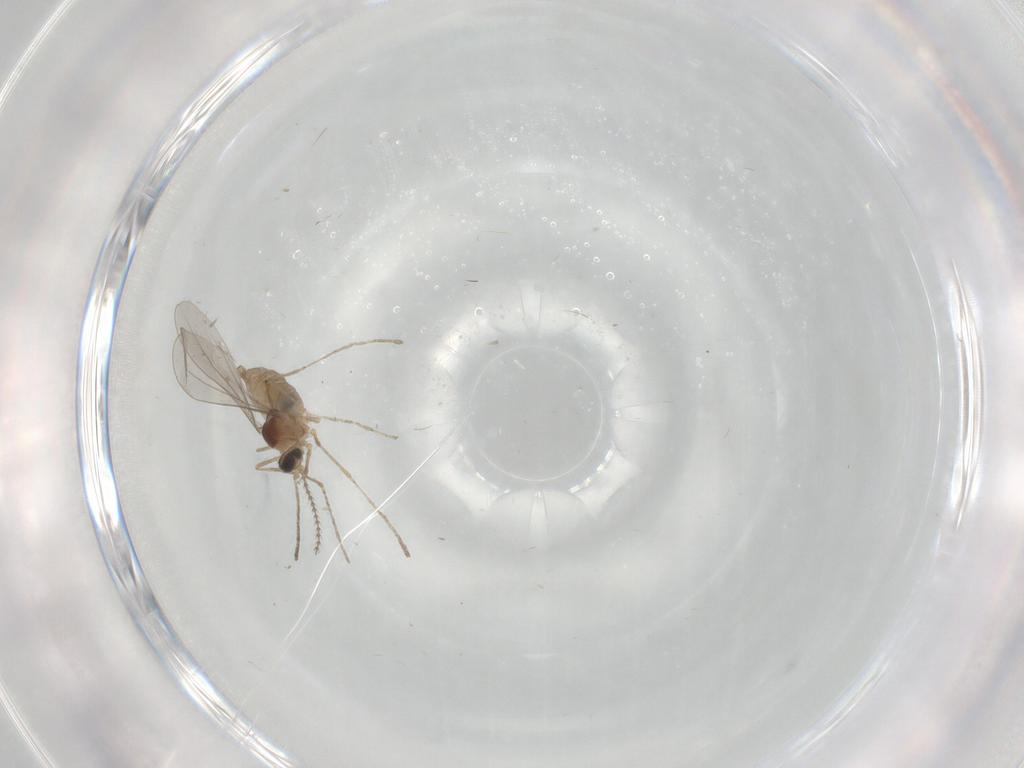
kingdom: Animalia
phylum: Arthropoda
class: Insecta
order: Diptera
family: Cecidomyiidae
